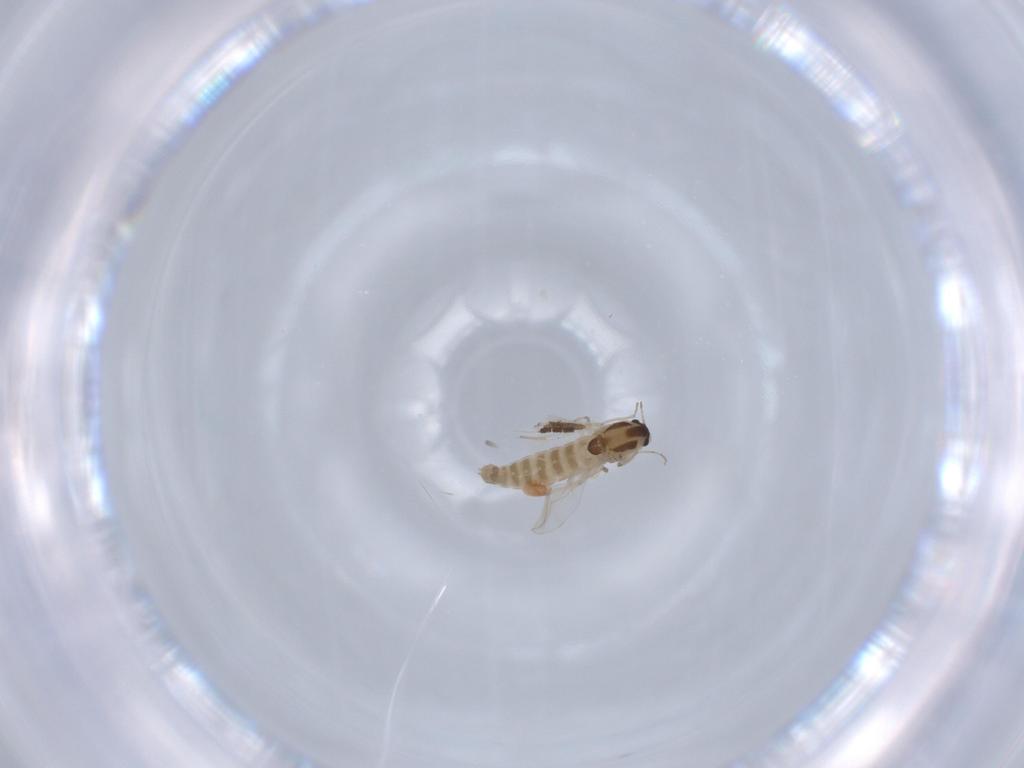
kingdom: Animalia
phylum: Arthropoda
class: Insecta
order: Diptera
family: Chironomidae
